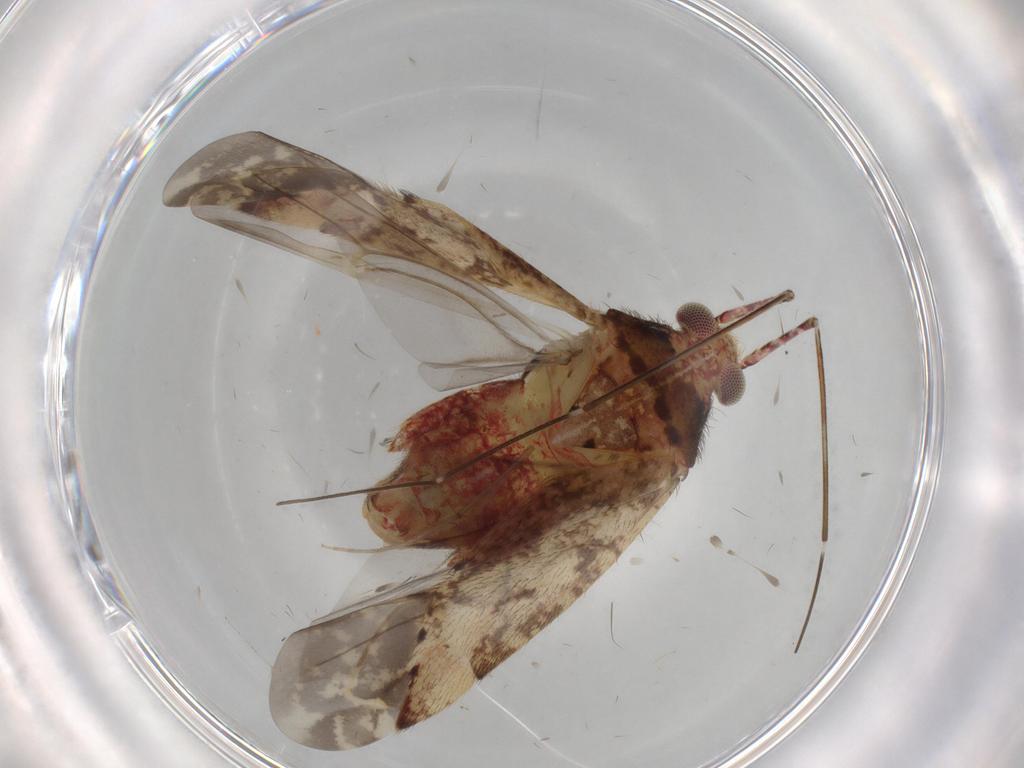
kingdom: Animalia
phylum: Arthropoda
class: Insecta
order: Hemiptera
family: Miridae
